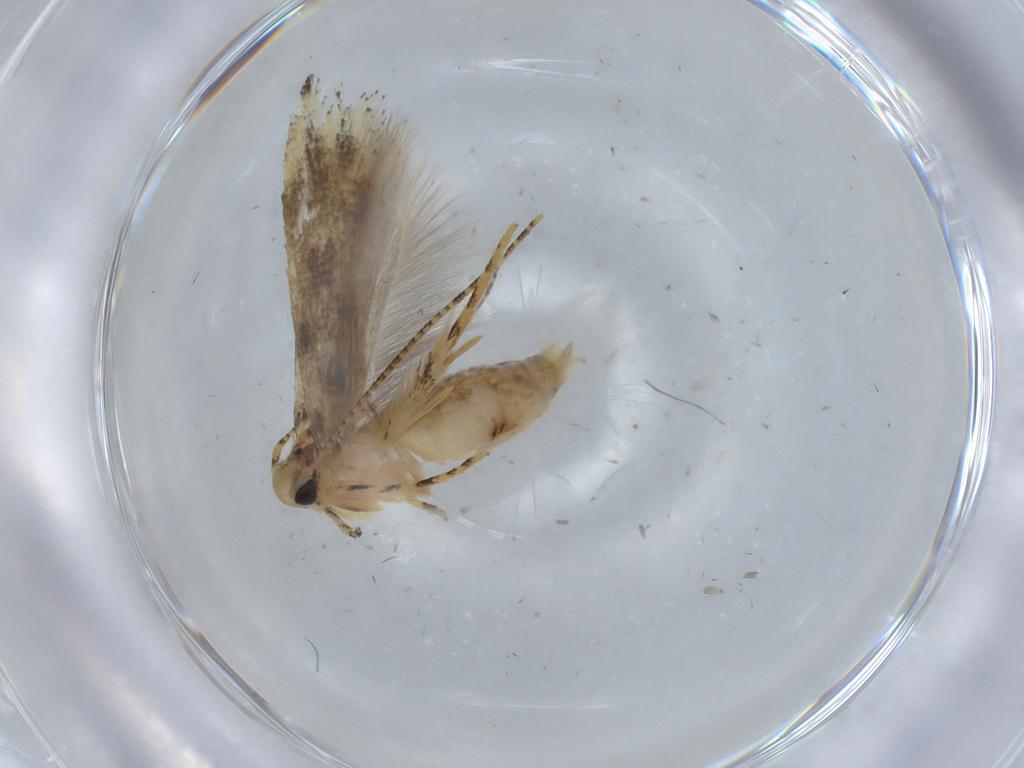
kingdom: Animalia
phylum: Arthropoda
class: Insecta
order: Lepidoptera
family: Gelechiidae
